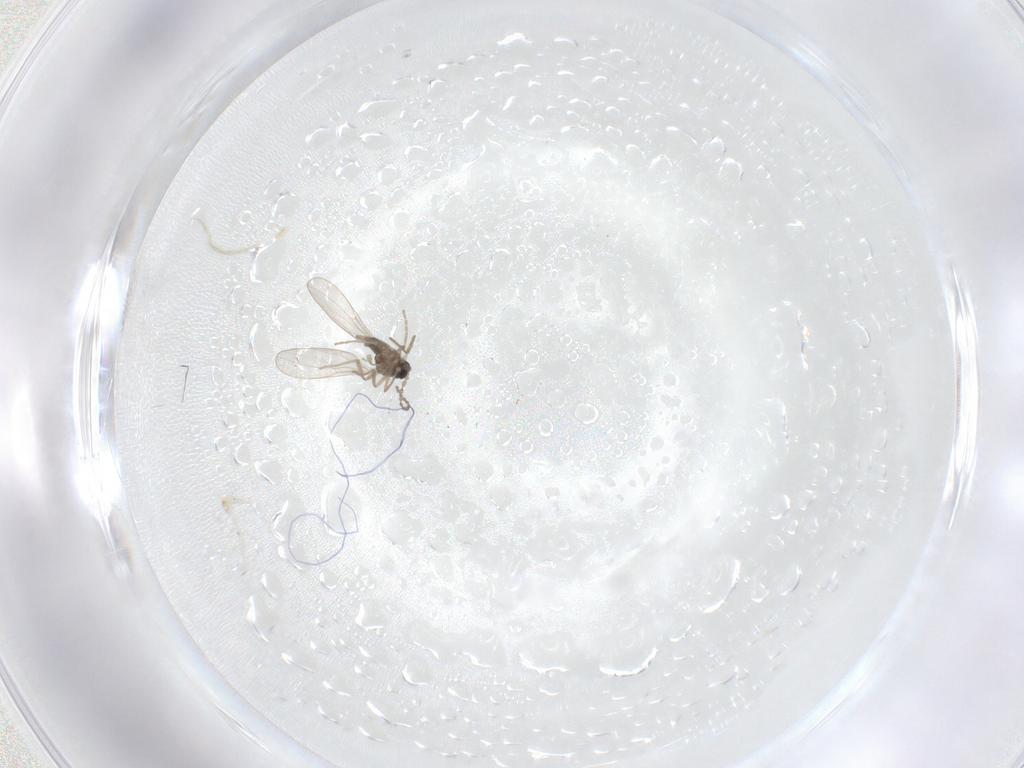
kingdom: Animalia
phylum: Arthropoda
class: Insecta
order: Diptera
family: Cecidomyiidae
